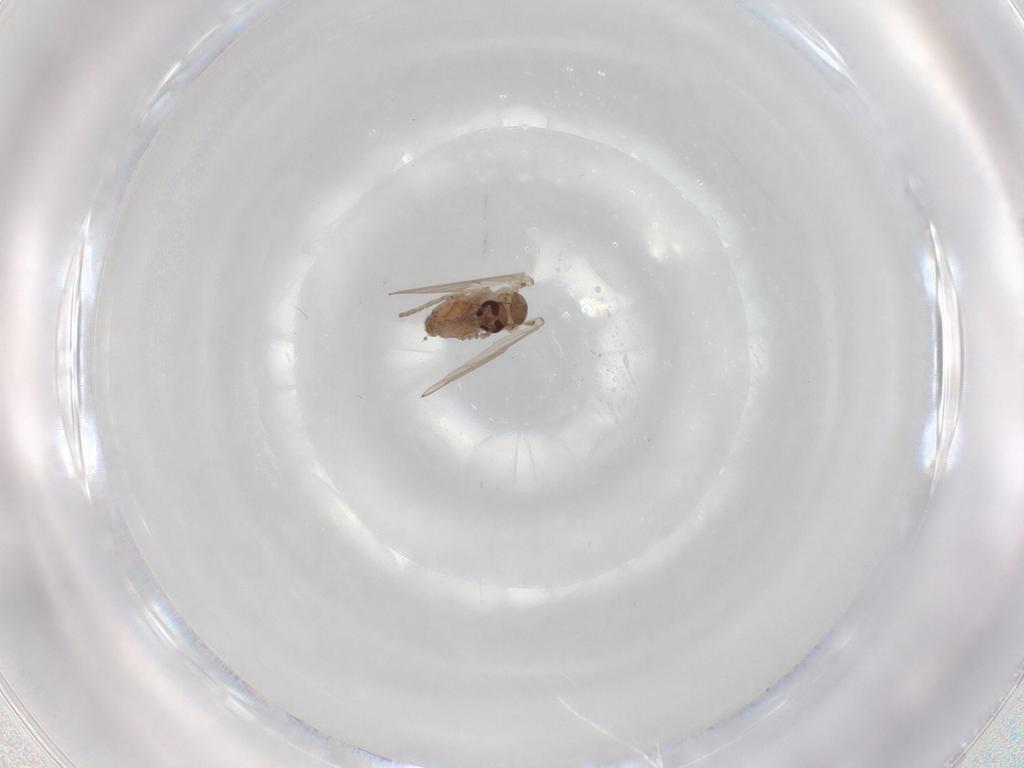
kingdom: Animalia
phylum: Arthropoda
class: Insecta
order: Diptera
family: Psychodidae
